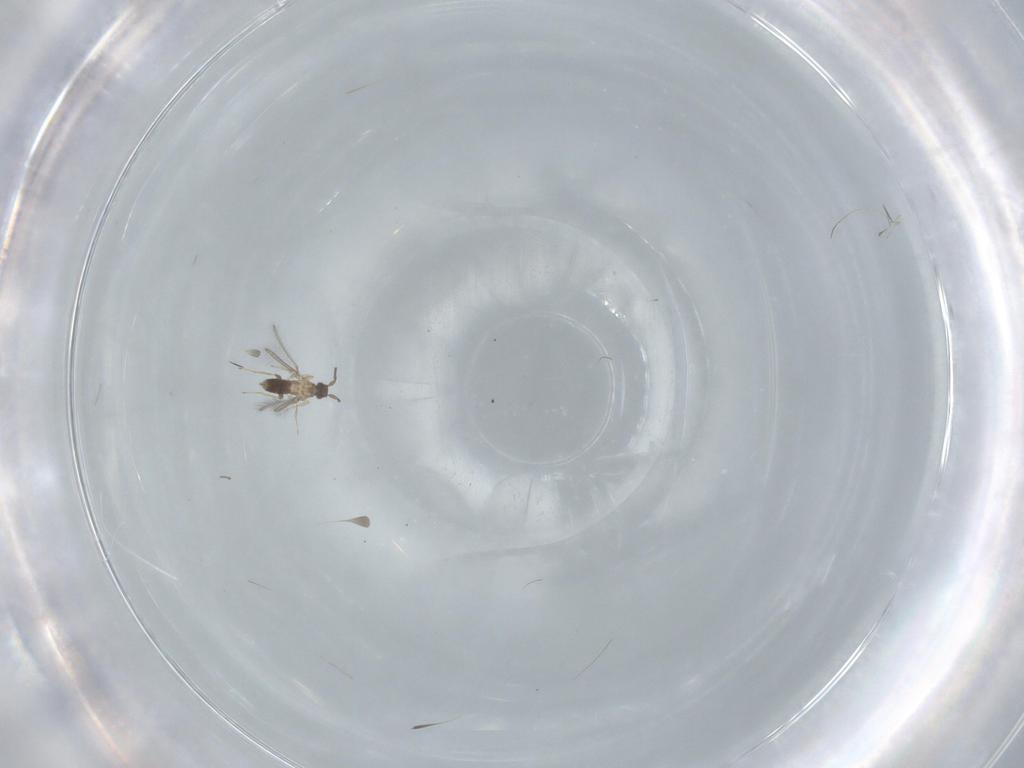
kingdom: Animalia
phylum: Arthropoda
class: Insecta
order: Hymenoptera
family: Mymaridae
